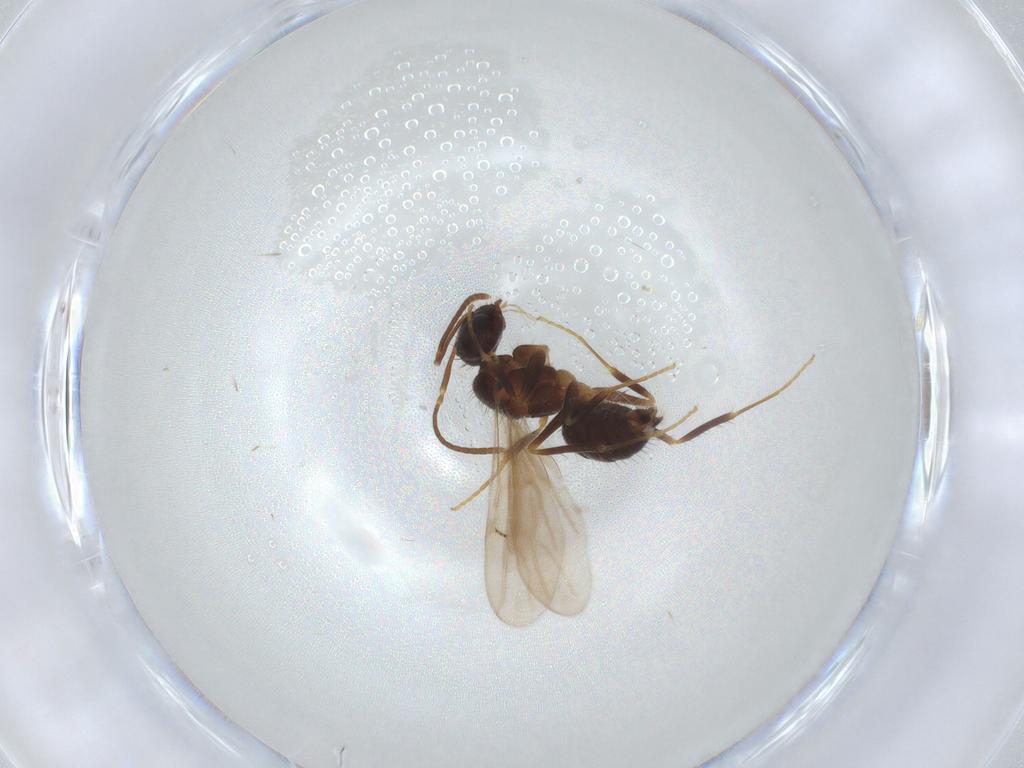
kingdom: Animalia
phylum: Arthropoda
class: Insecta
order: Hymenoptera
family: Formicidae
